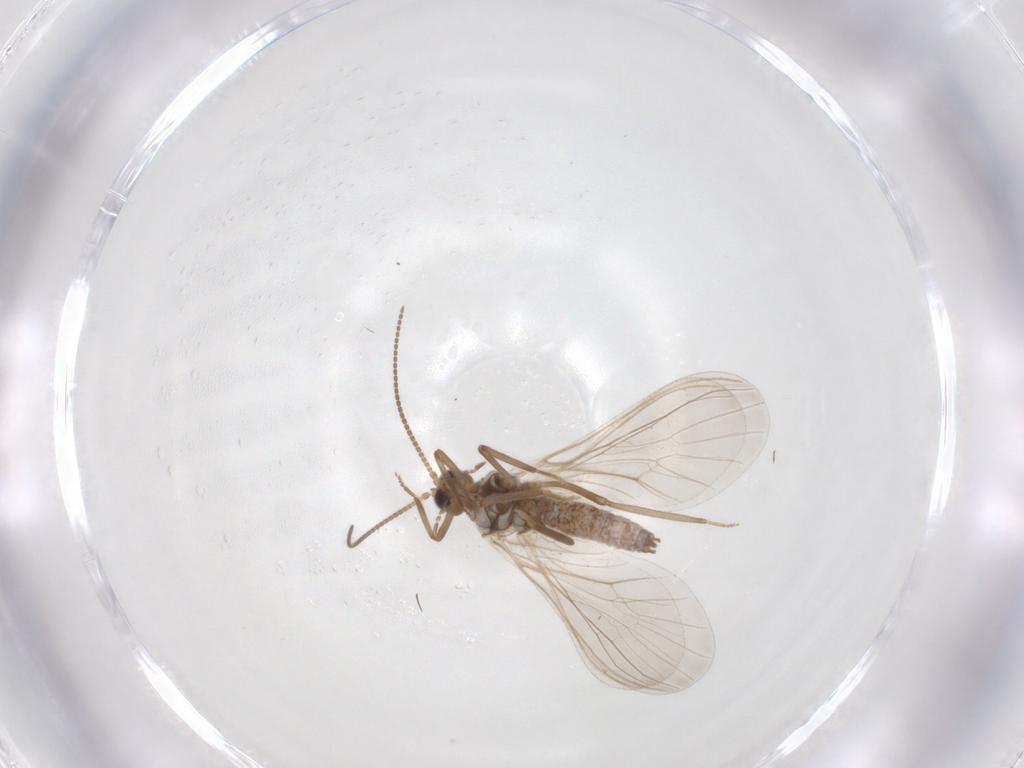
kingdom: Animalia
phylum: Arthropoda
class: Insecta
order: Neuroptera
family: Coniopterygidae
